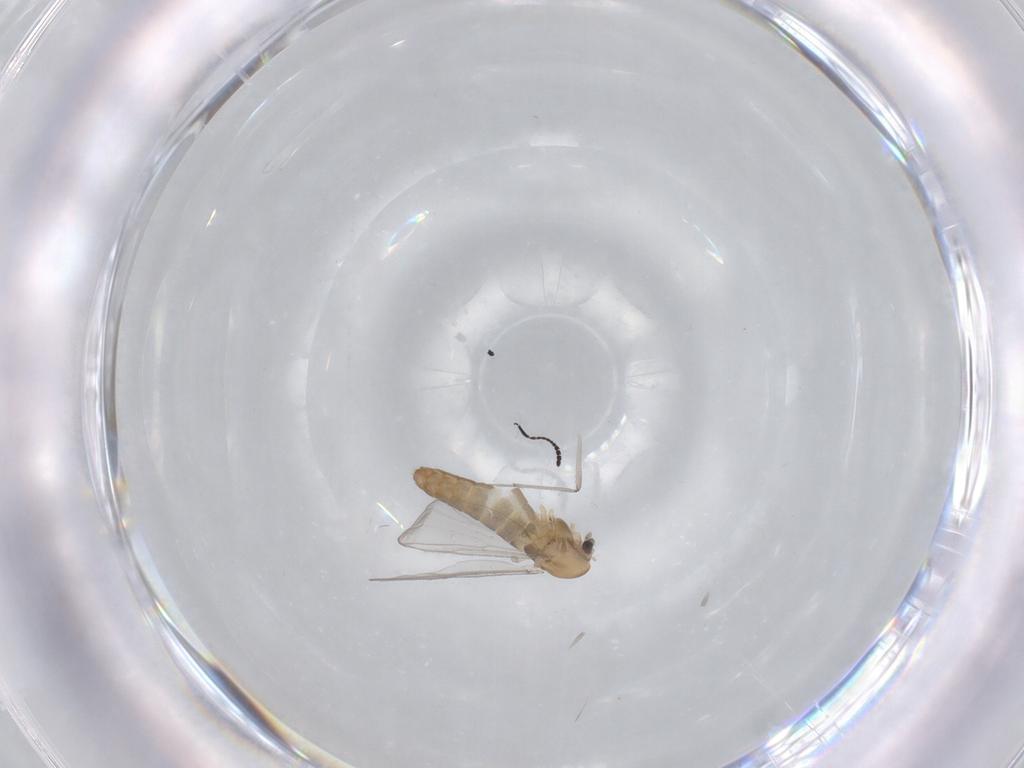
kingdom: Animalia
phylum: Arthropoda
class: Insecta
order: Diptera
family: Chironomidae
